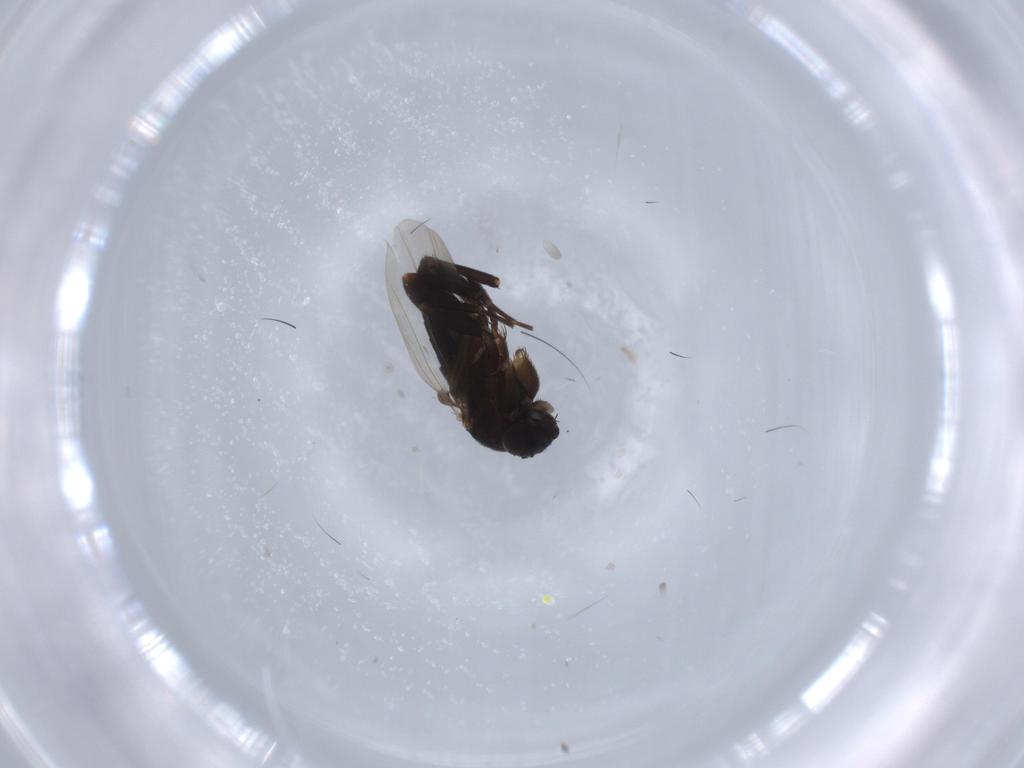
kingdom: Animalia
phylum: Arthropoda
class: Insecta
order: Diptera
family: Phoridae
